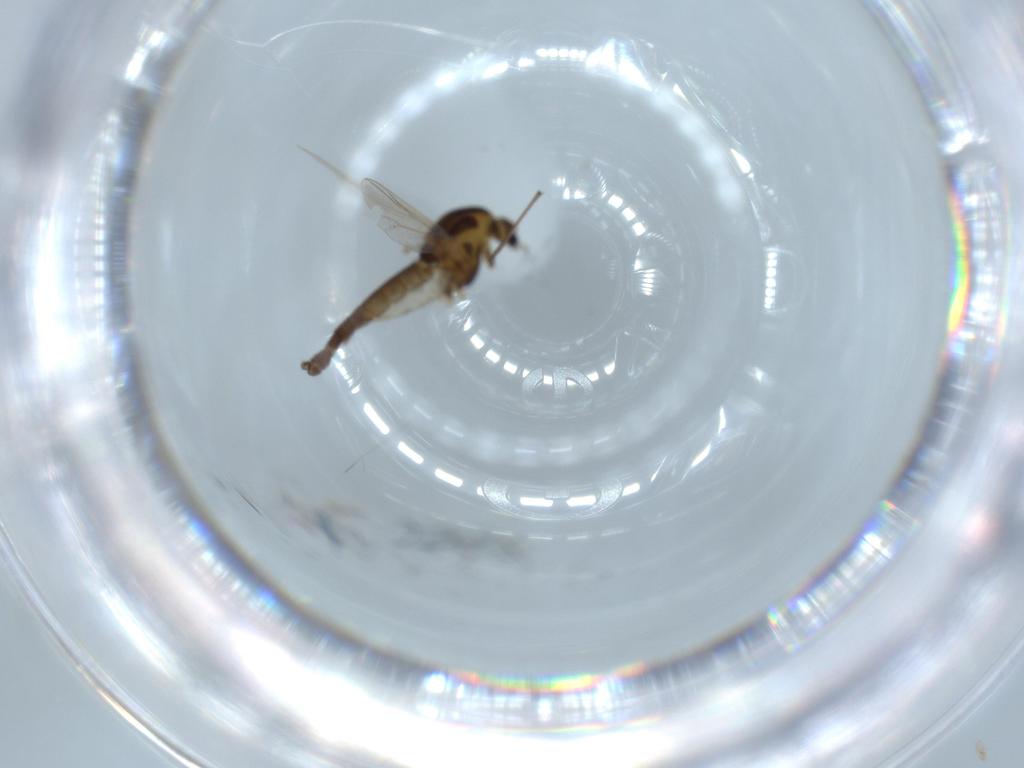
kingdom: Animalia
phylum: Arthropoda
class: Insecta
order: Diptera
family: Chironomidae
